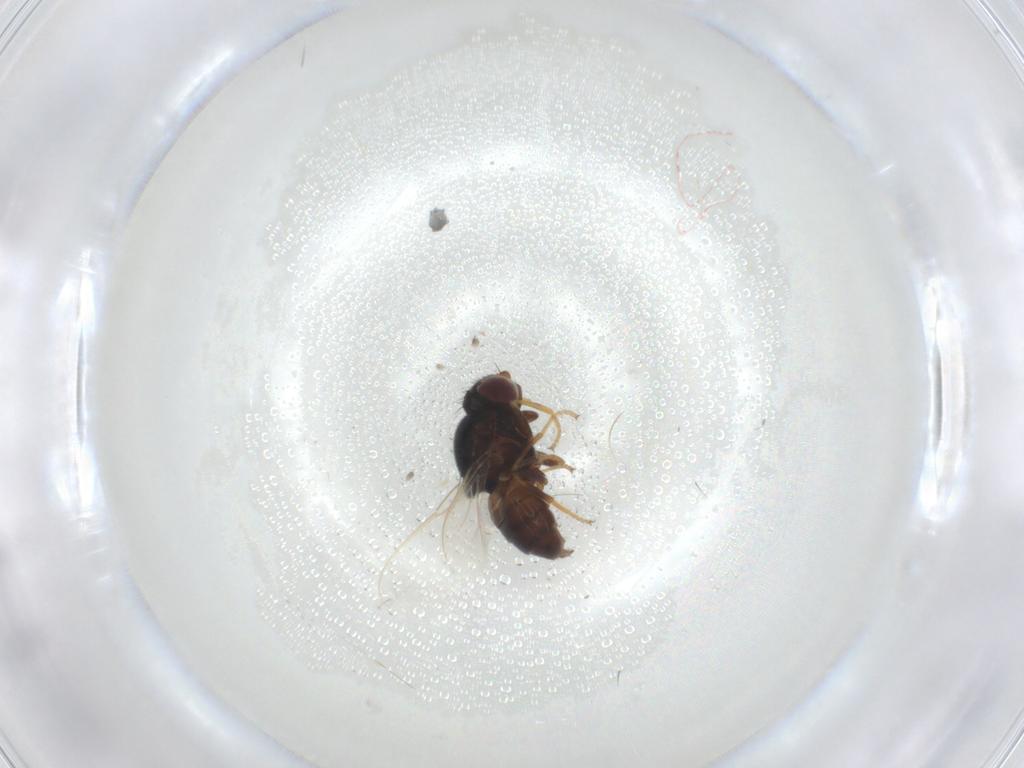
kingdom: Animalia
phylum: Arthropoda
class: Insecta
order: Diptera
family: Chloropidae
